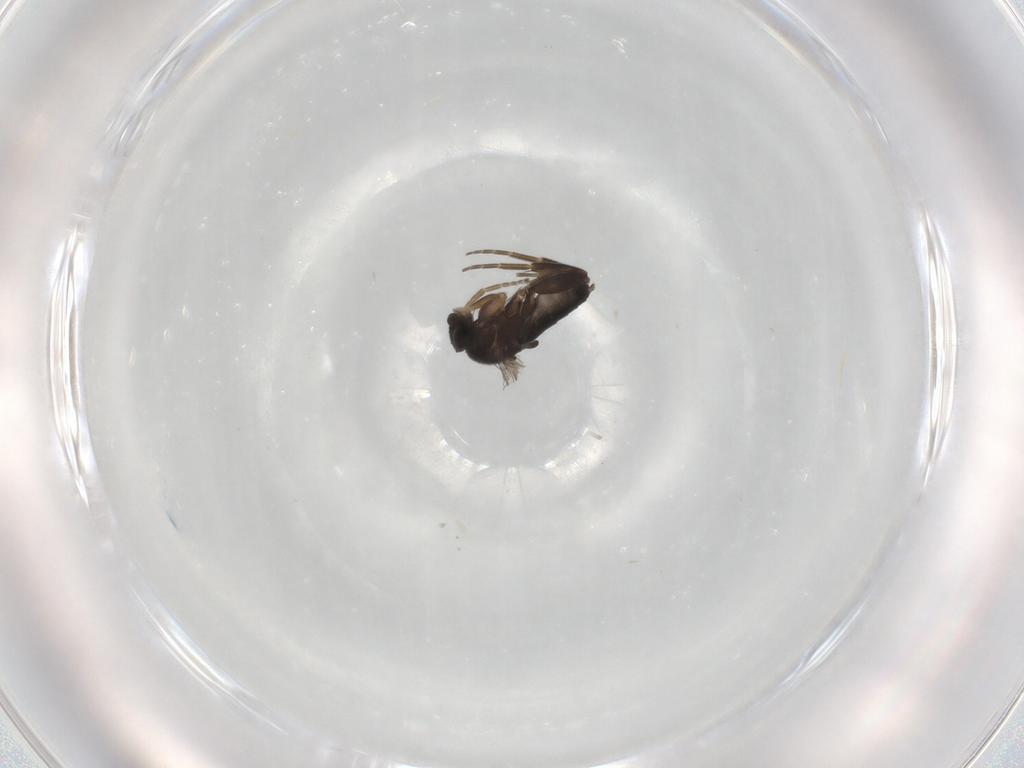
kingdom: Animalia
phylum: Arthropoda
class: Insecta
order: Diptera
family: Cecidomyiidae
